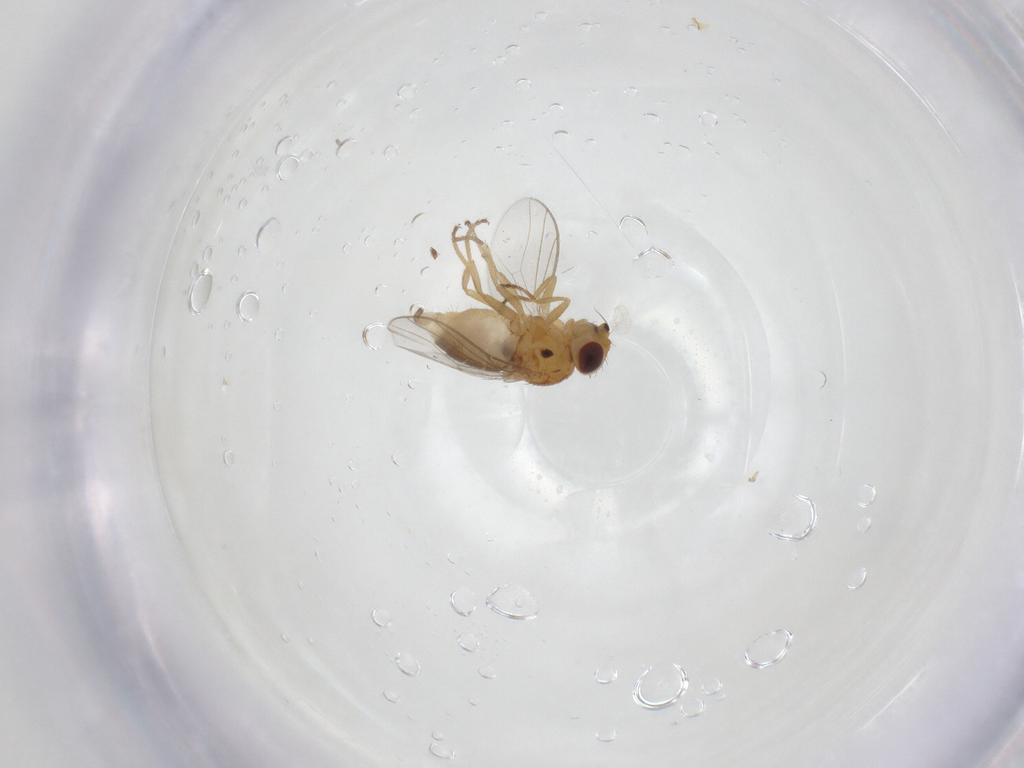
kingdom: Animalia
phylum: Arthropoda
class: Insecta
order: Diptera
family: Chloropidae
